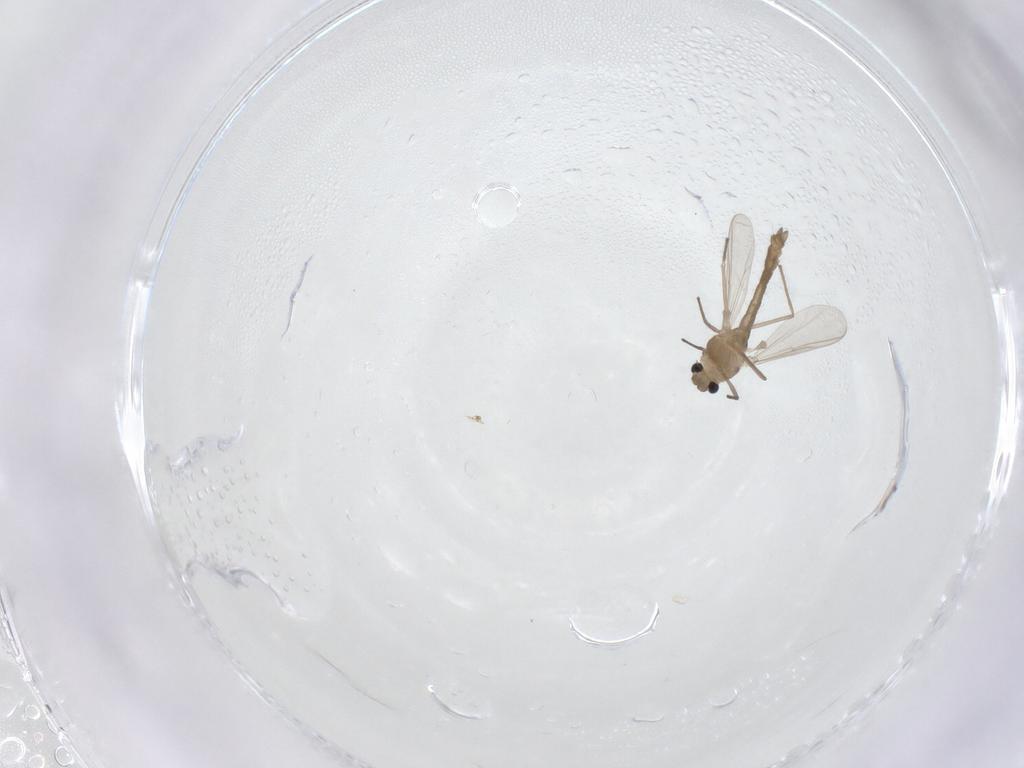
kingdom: Animalia
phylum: Arthropoda
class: Insecta
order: Diptera
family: Chironomidae
